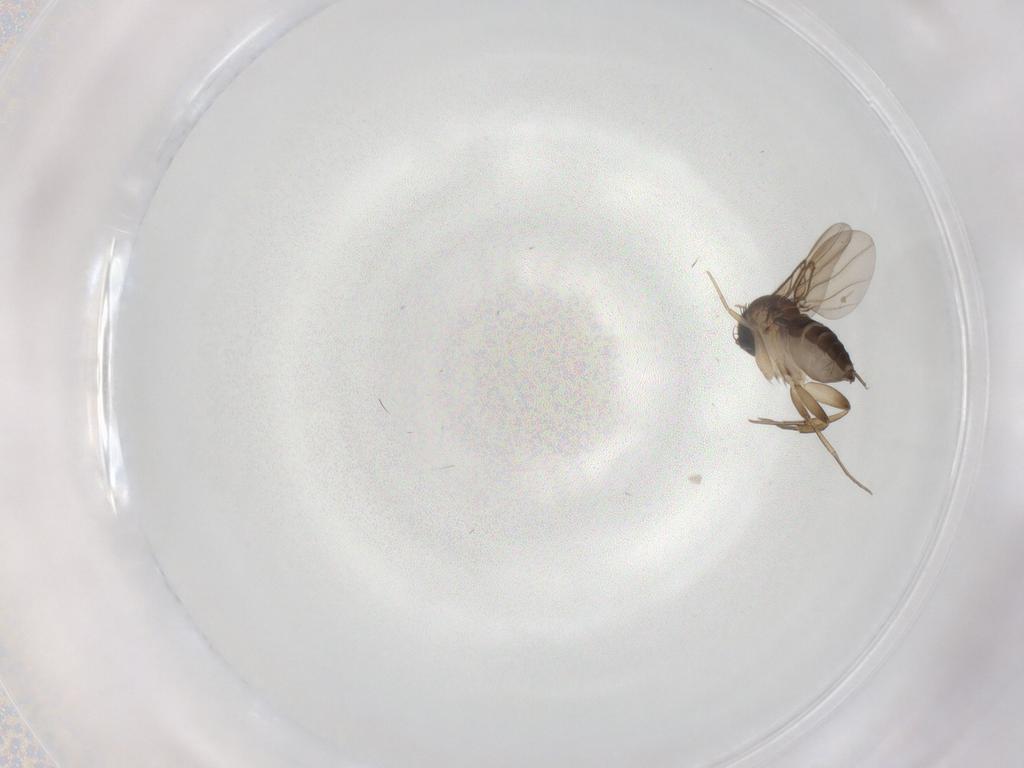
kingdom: Animalia
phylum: Arthropoda
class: Insecta
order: Diptera
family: Phoridae
